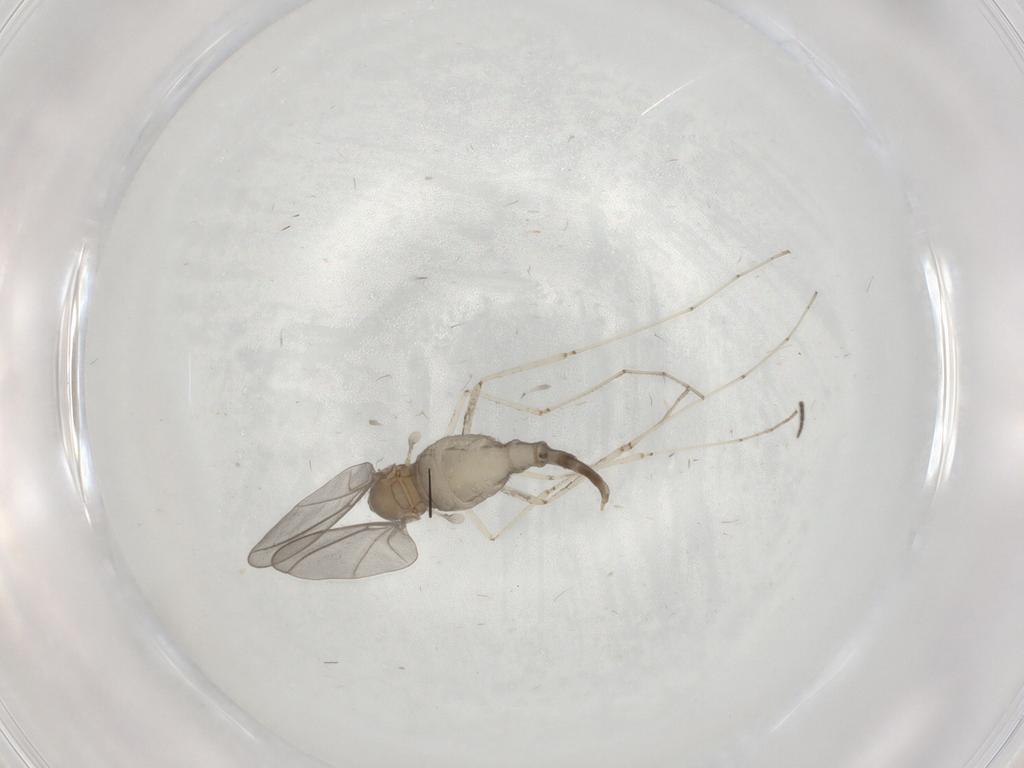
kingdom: Animalia
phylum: Arthropoda
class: Insecta
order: Diptera
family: Cecidomyiidae
